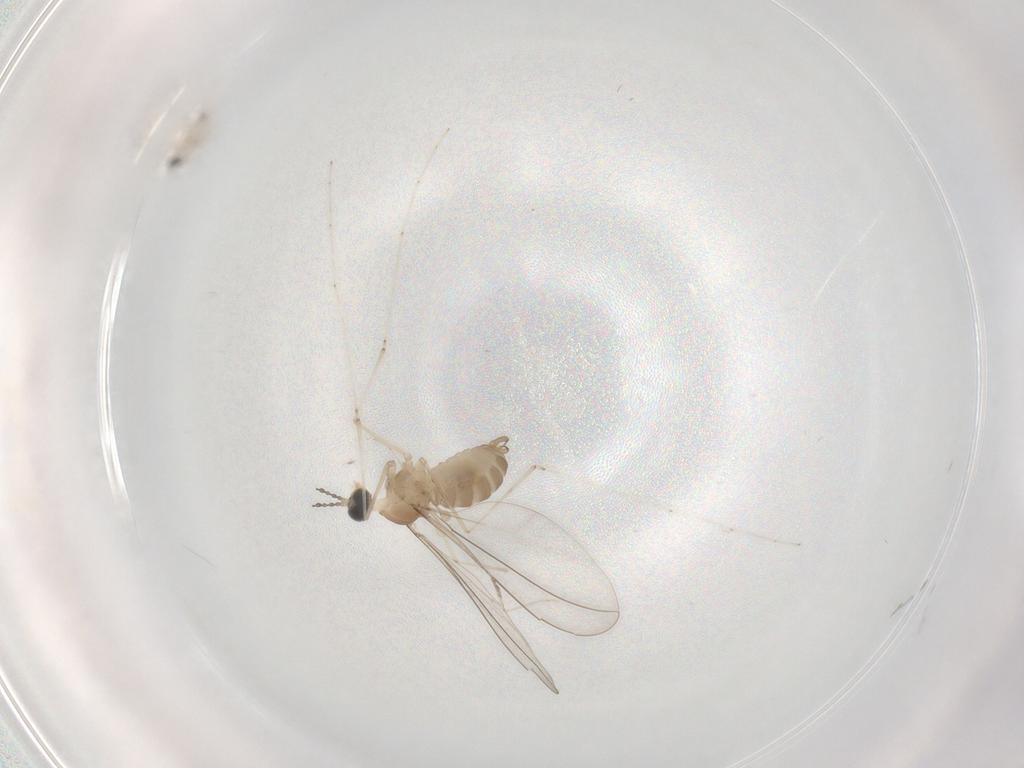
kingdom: Animalia
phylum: Arthropoda
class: Insecta
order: Diptera
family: Cecidomyiidae
